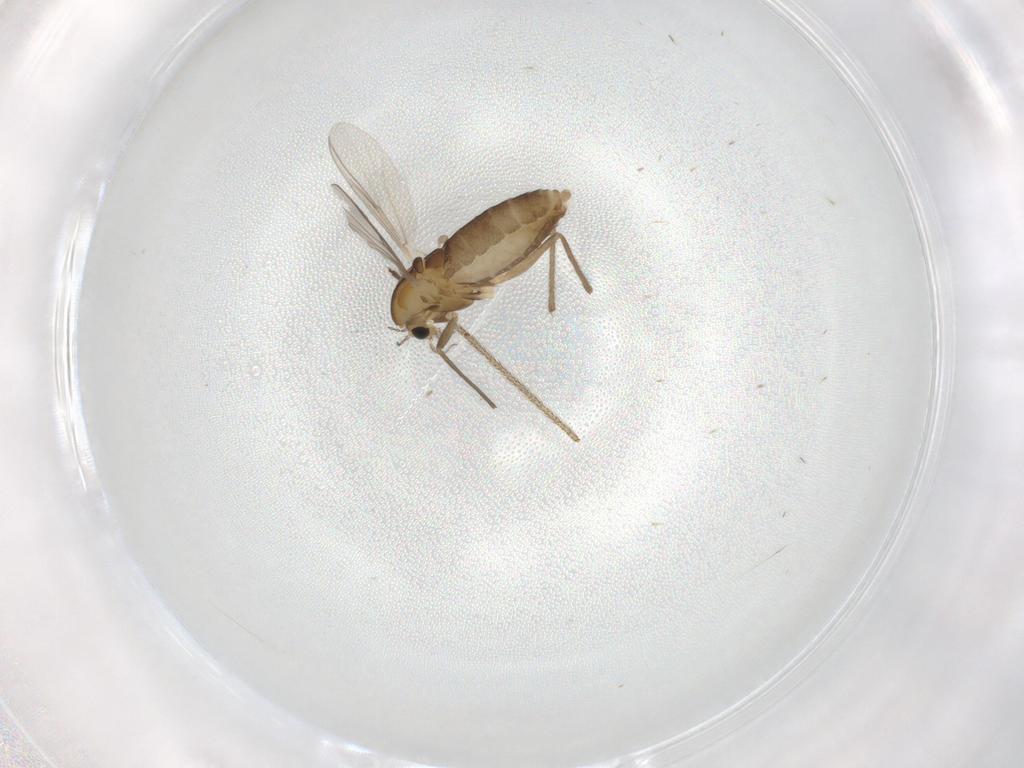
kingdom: Animalia
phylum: Arthropoda
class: Insecta
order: Diptera
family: Chironomidae
